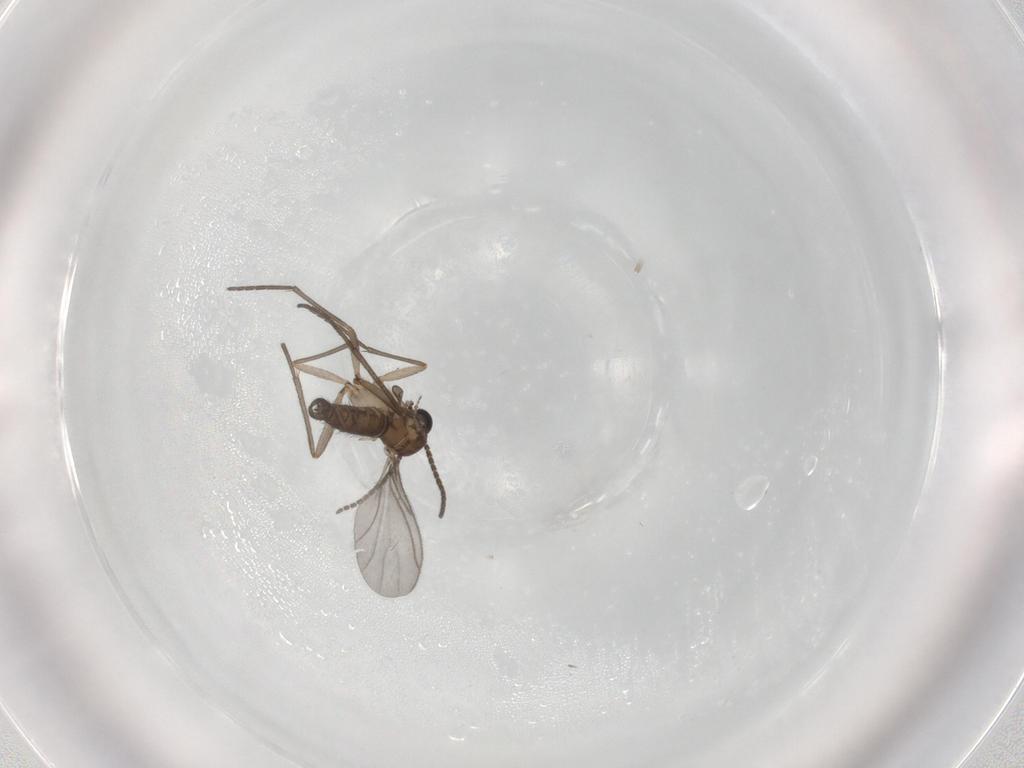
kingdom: Animalia
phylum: Arthropoda
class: Insecta
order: Diptera
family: Sciaridae
